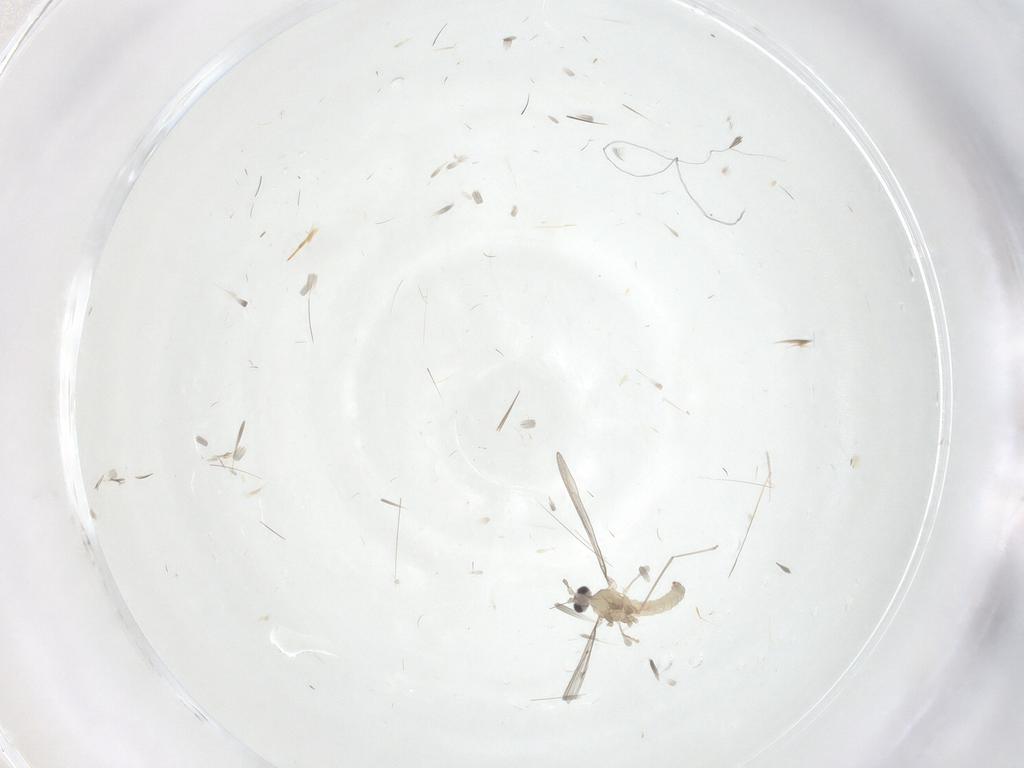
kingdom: Animalia
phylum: Arthropoda
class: Insecta
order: Diptera
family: Cecidomyiidae
